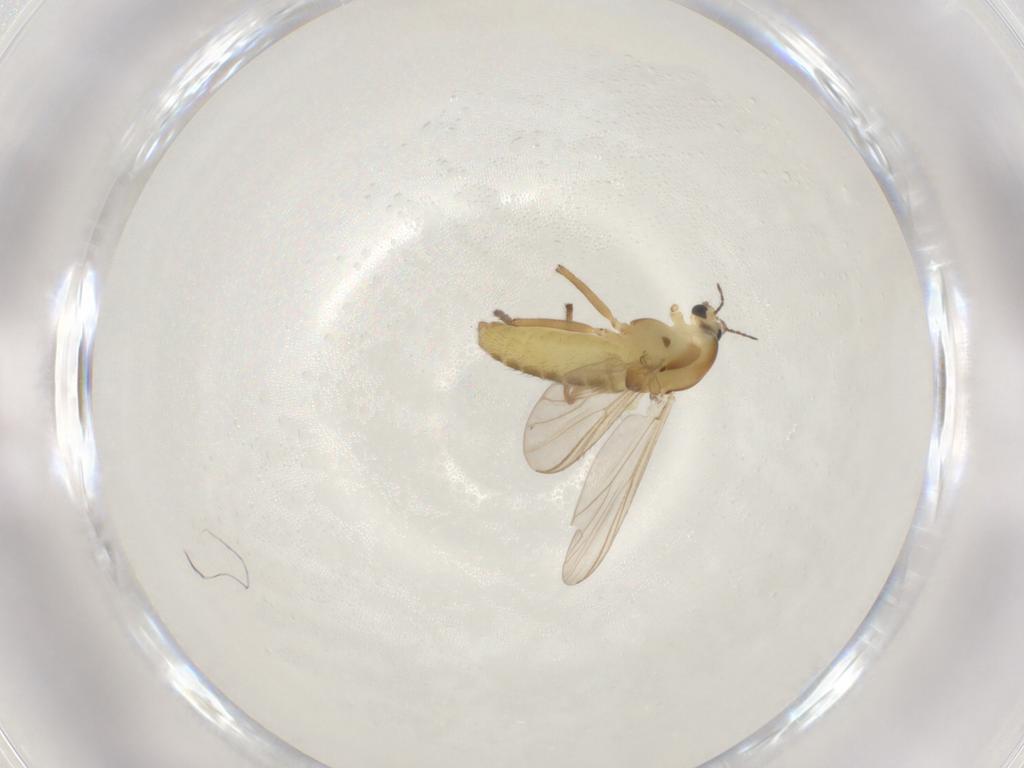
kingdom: Animalia
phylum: Arthropoda
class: Insecta
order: Diptera
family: Chironomidae
